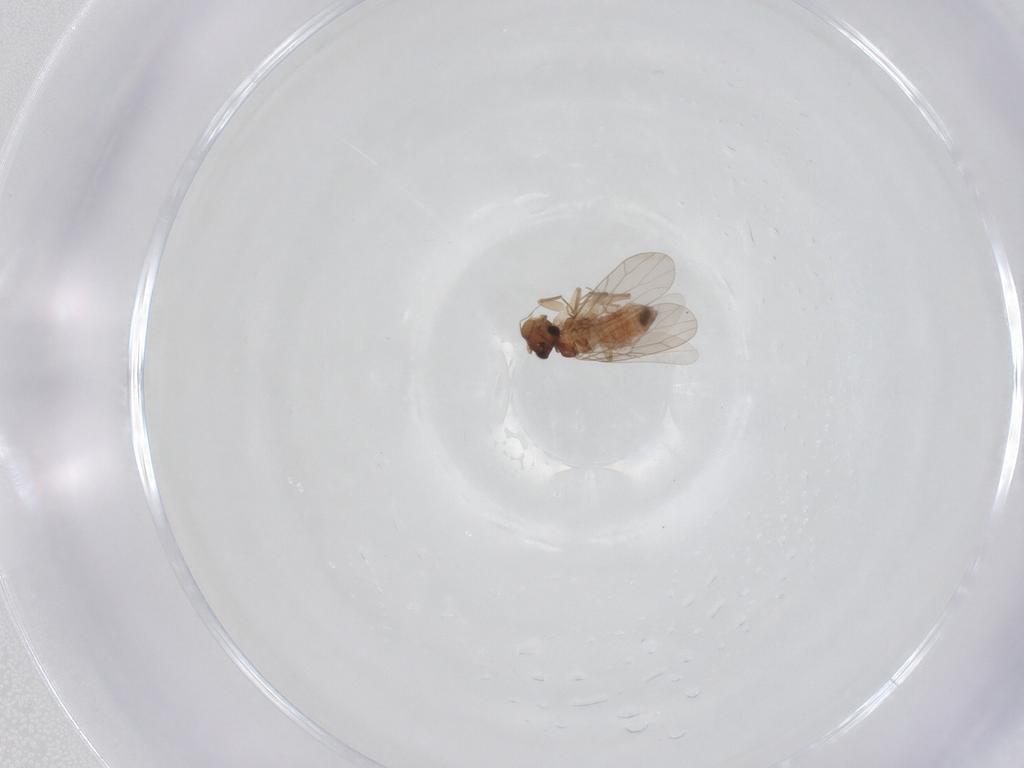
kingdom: Animalia
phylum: Arthropoda
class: Insecta
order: Psocodea
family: Lepidopsocidae
